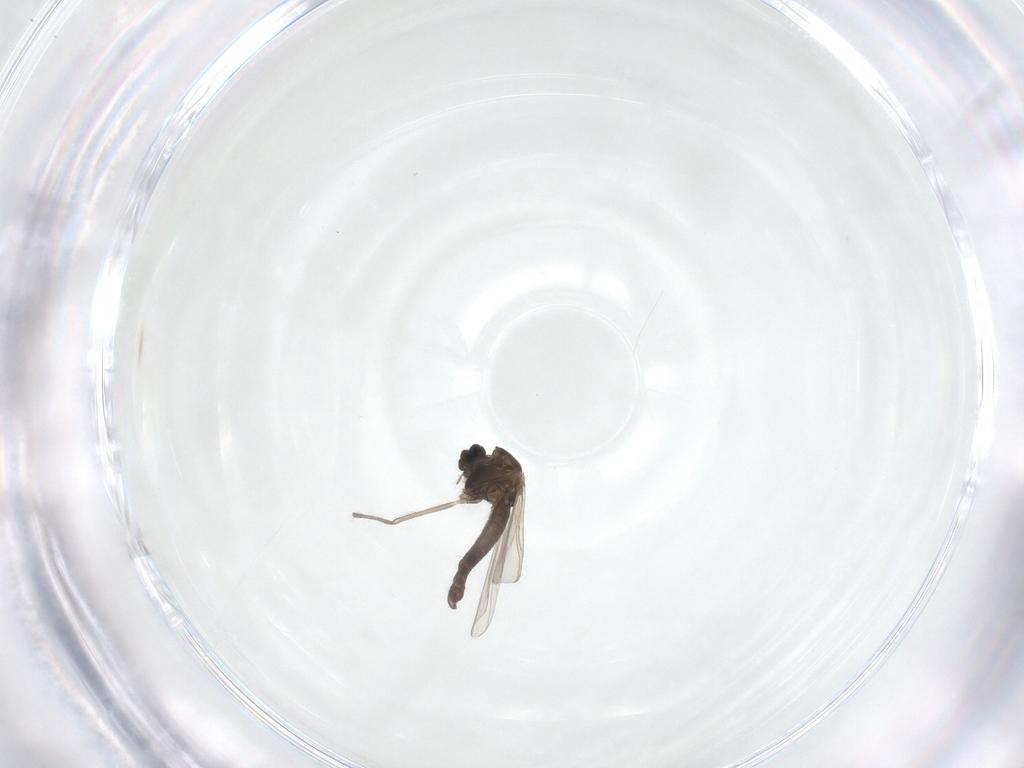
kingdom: Animalia
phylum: Arthropoda
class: Insecta
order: Diptera
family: Chironomidae
